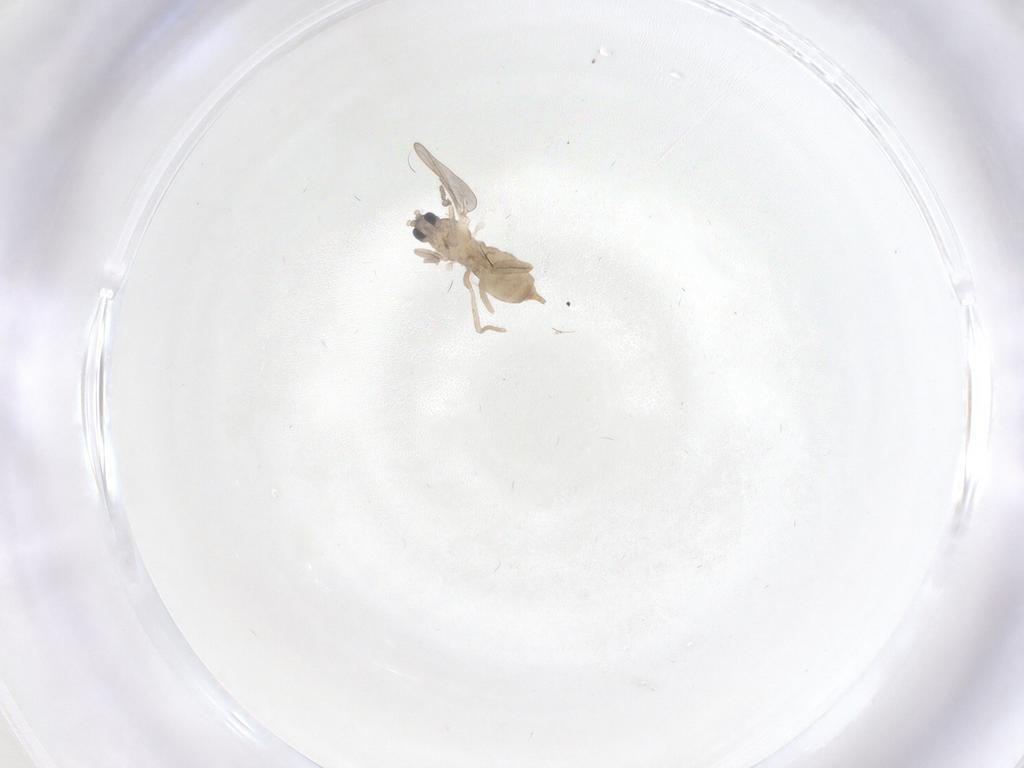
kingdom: Animalia
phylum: Arthropoda
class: Insecta
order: Diptera
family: Cecidomyiidae
